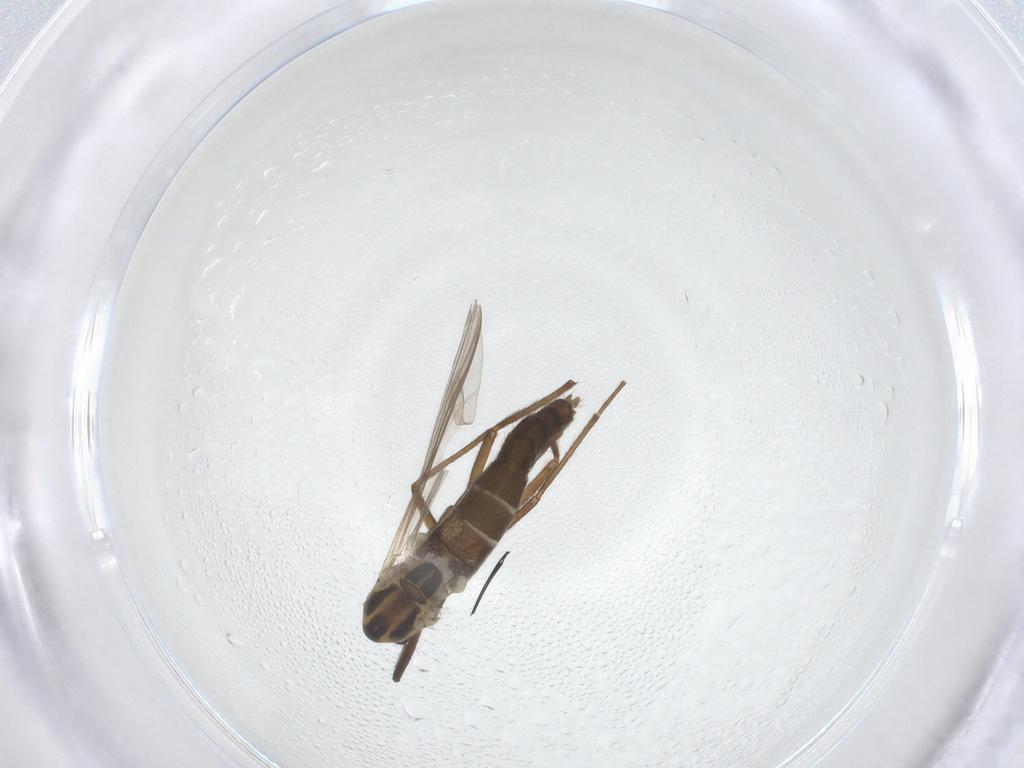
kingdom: Animalia
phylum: Arthropoda
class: Insecta
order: Diptera
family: Chironomidae
